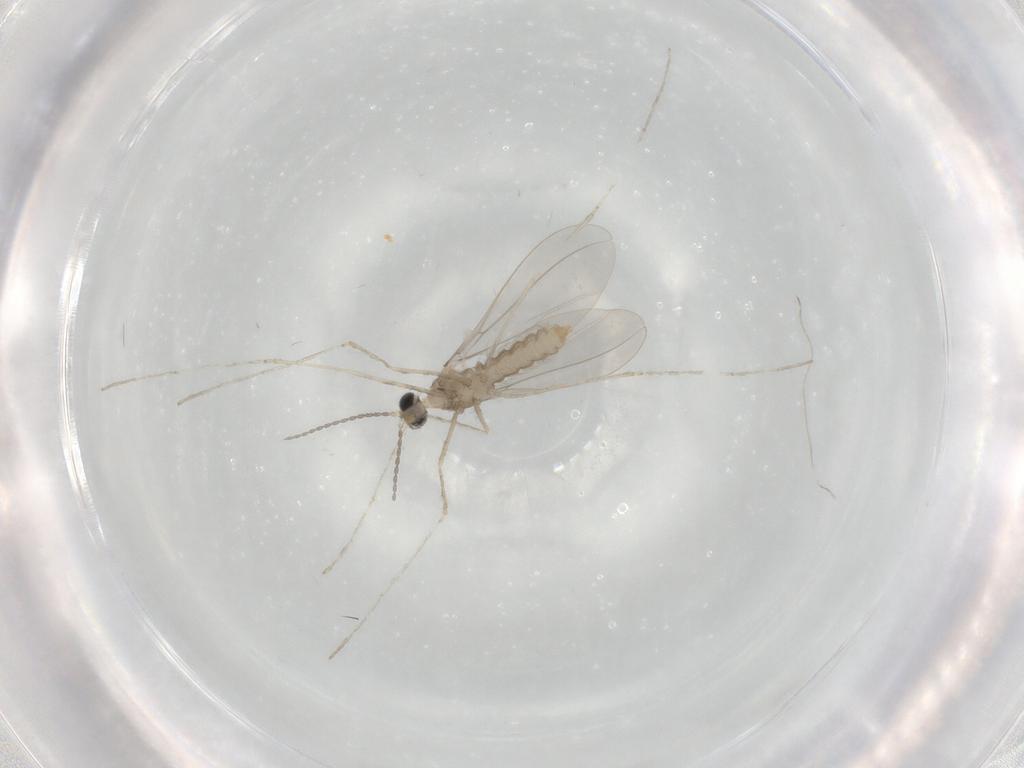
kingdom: Animalia
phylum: Arthropoda
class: Insecta
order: Diptera
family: Cecidomyiidae
